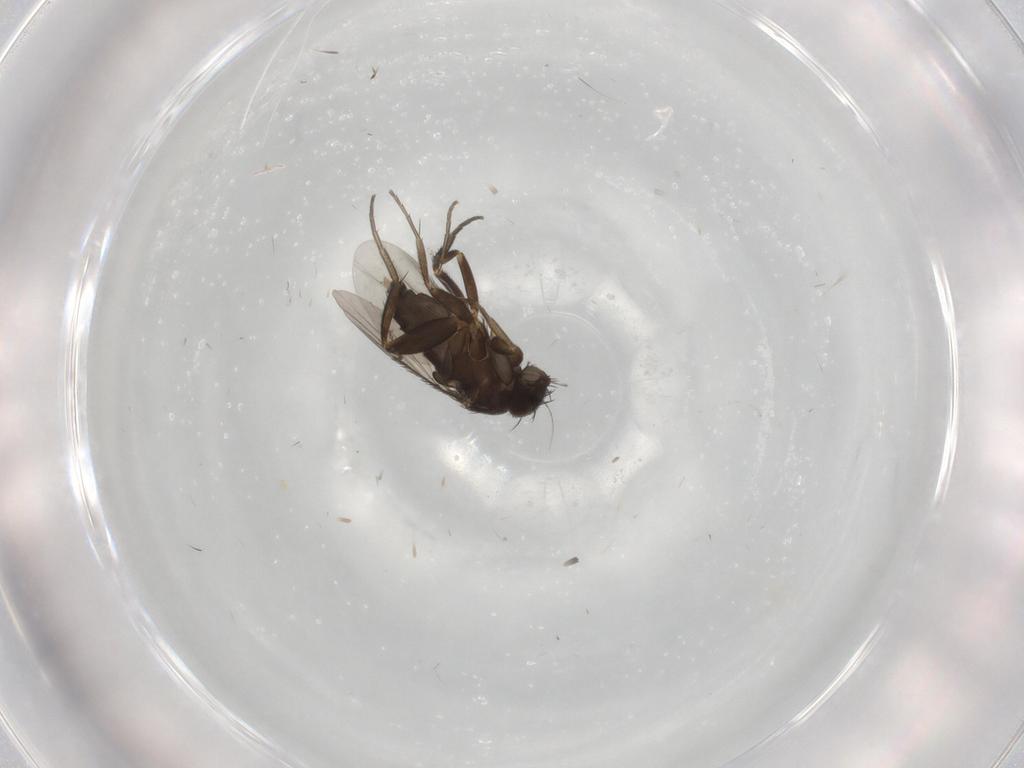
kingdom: Animalia
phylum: Arthropoda
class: Insecta
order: Diptera
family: Phoridae
